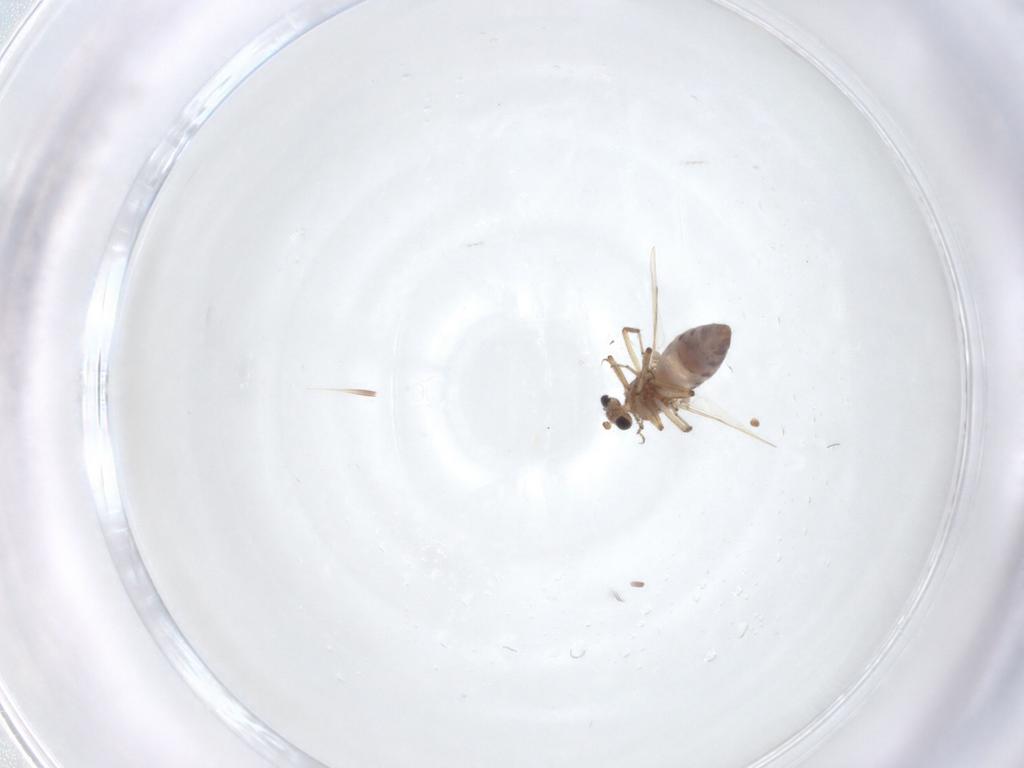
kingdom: Animalia
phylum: Arthropoda
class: Insecta
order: Diptera
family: Ceratopogonidae
